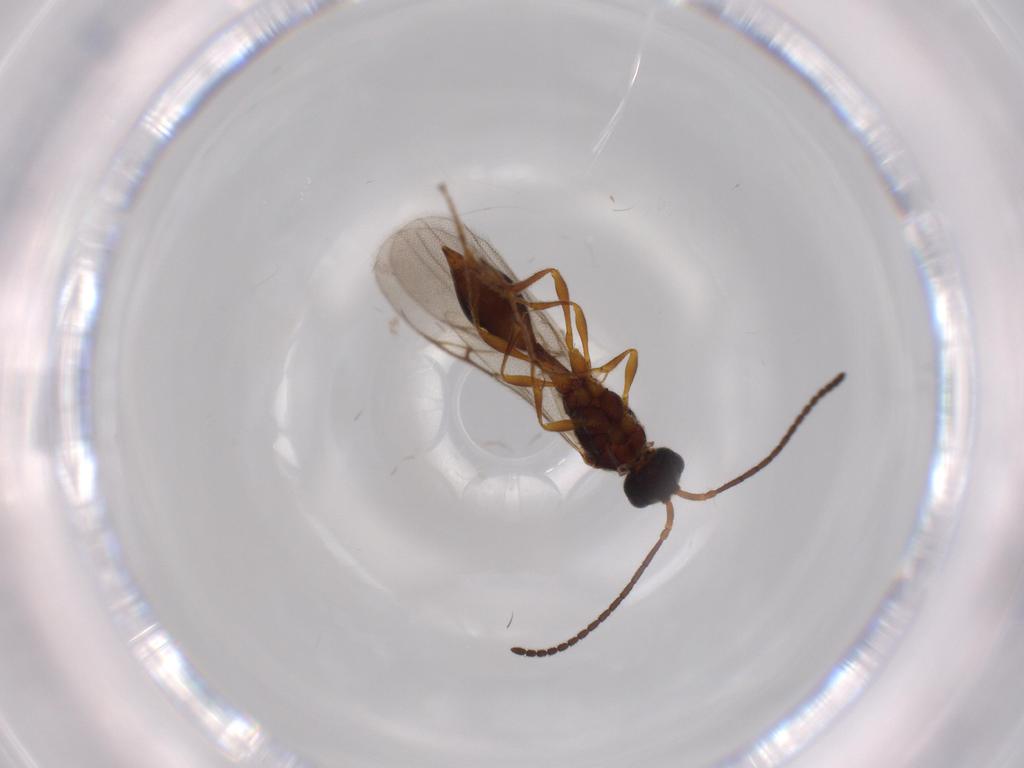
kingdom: Animalia
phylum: Arthropoda
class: Insecta
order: Hymenoptera
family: Diapriidae
